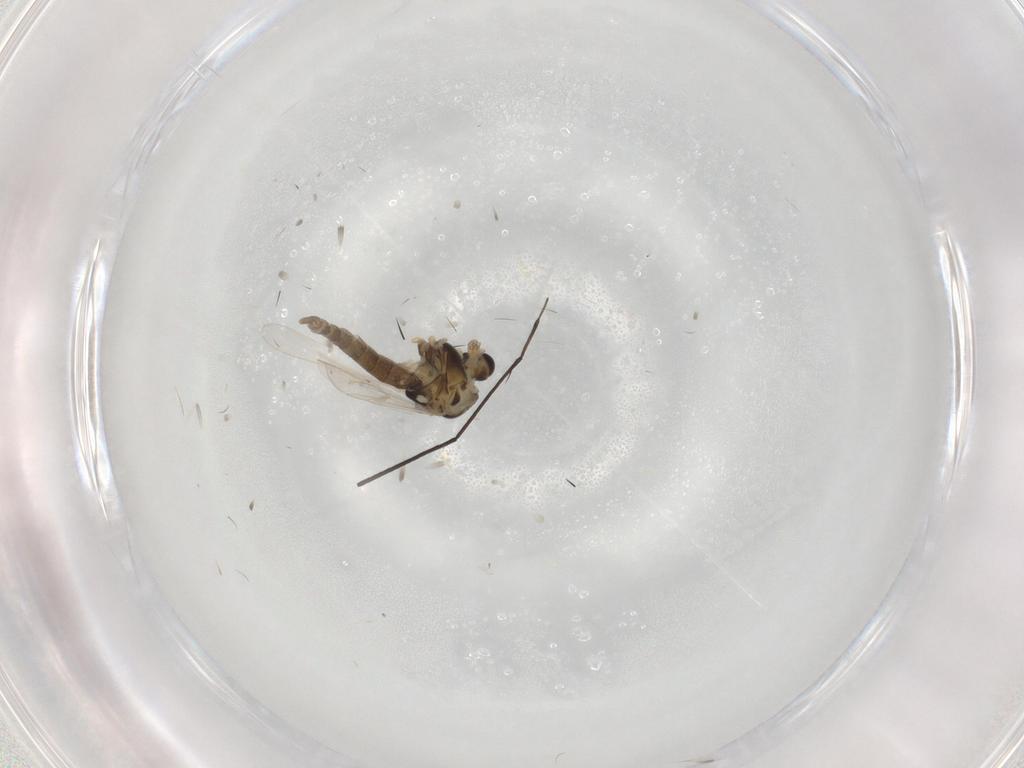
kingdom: Animalia
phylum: Arthropoda
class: Insecta
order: Diptera
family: Chironomidae
